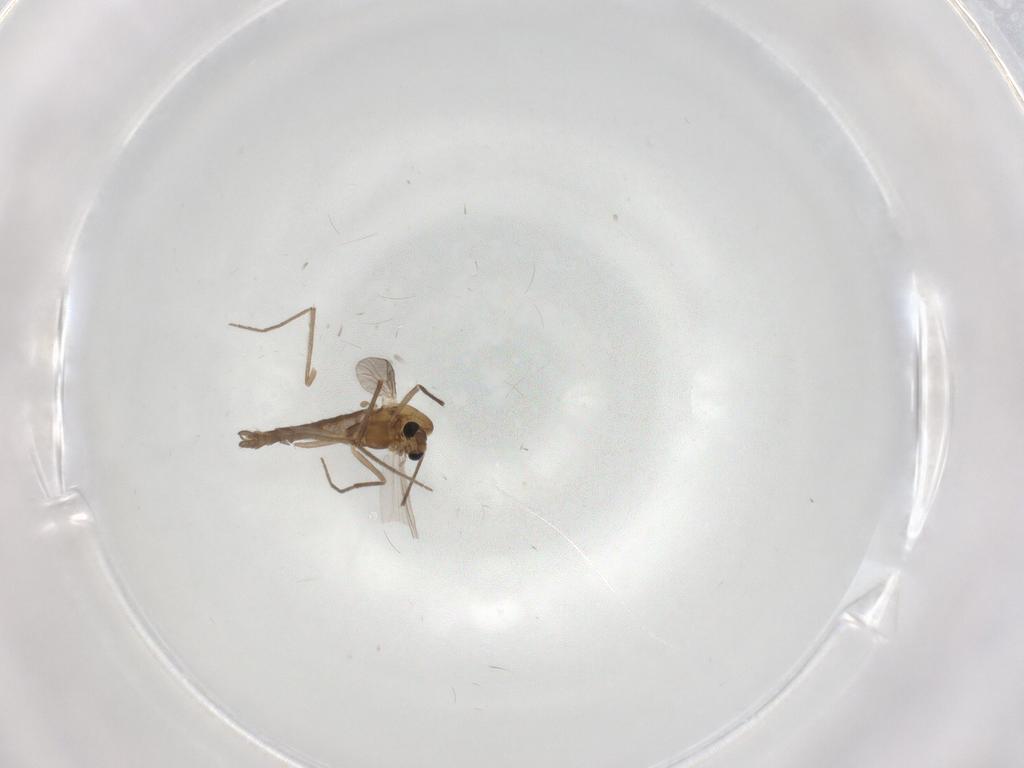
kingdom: Animalia
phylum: Arthropoda
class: Insecta
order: Diptera
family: Chironomidae
